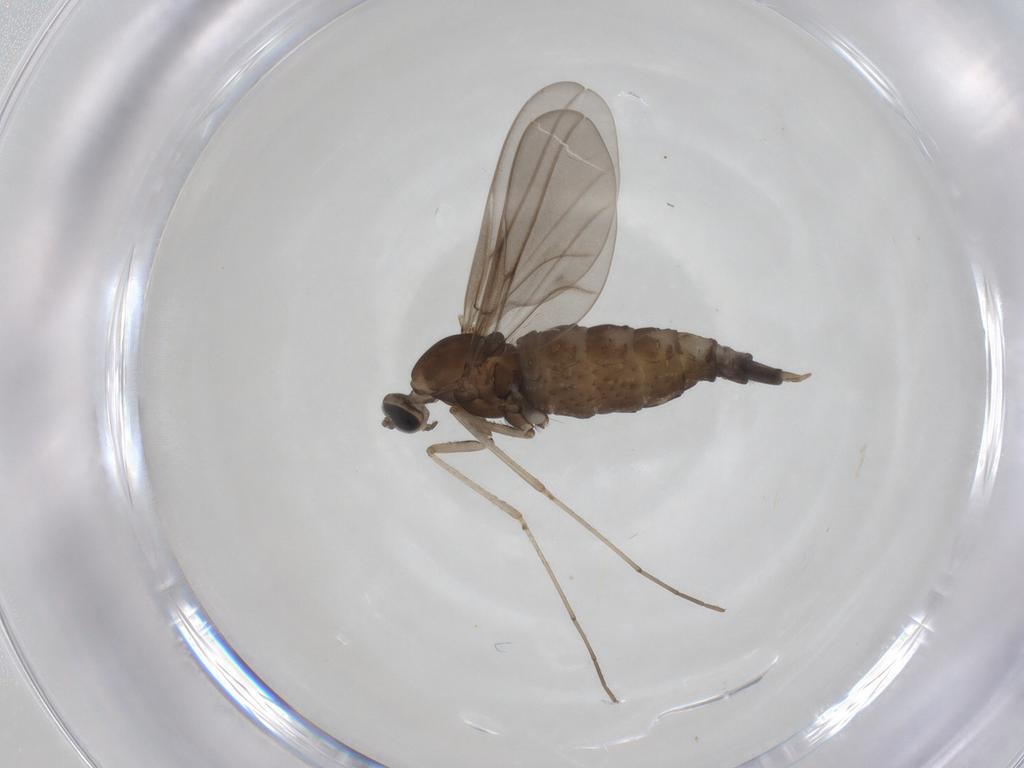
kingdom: Animalia
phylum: Arthropoda
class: Insecta
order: Diptera
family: Cecidomyiidae
